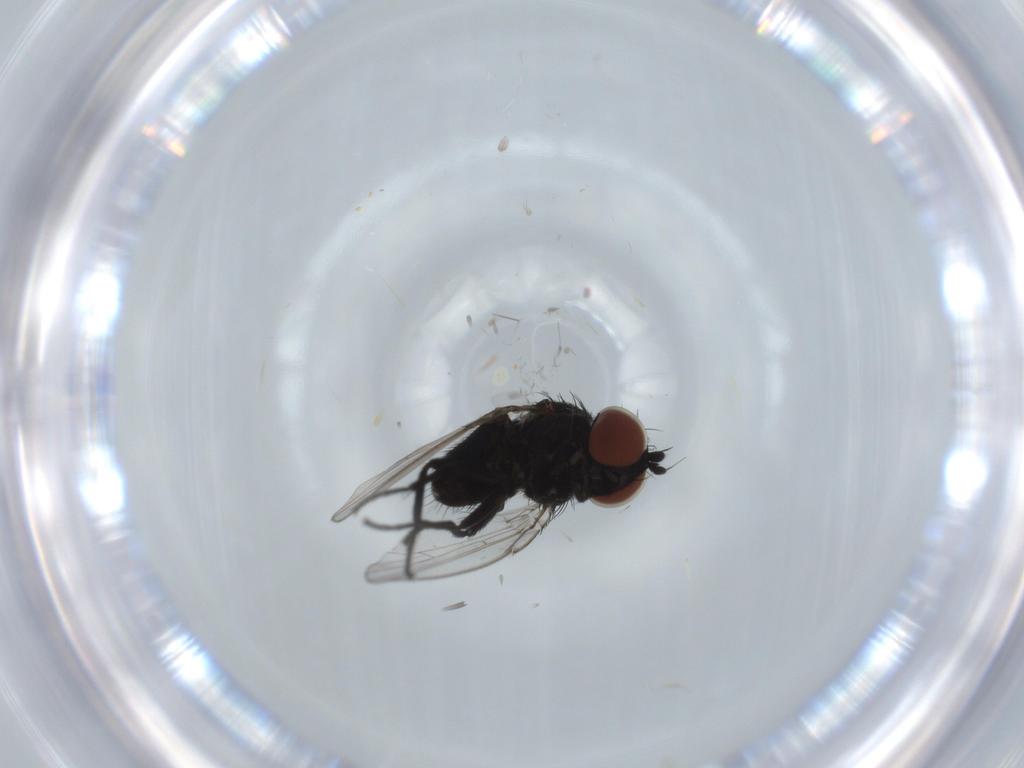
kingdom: Animalia
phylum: Arthropoda
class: Insecta
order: Diptera
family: Cecidomyiidae
